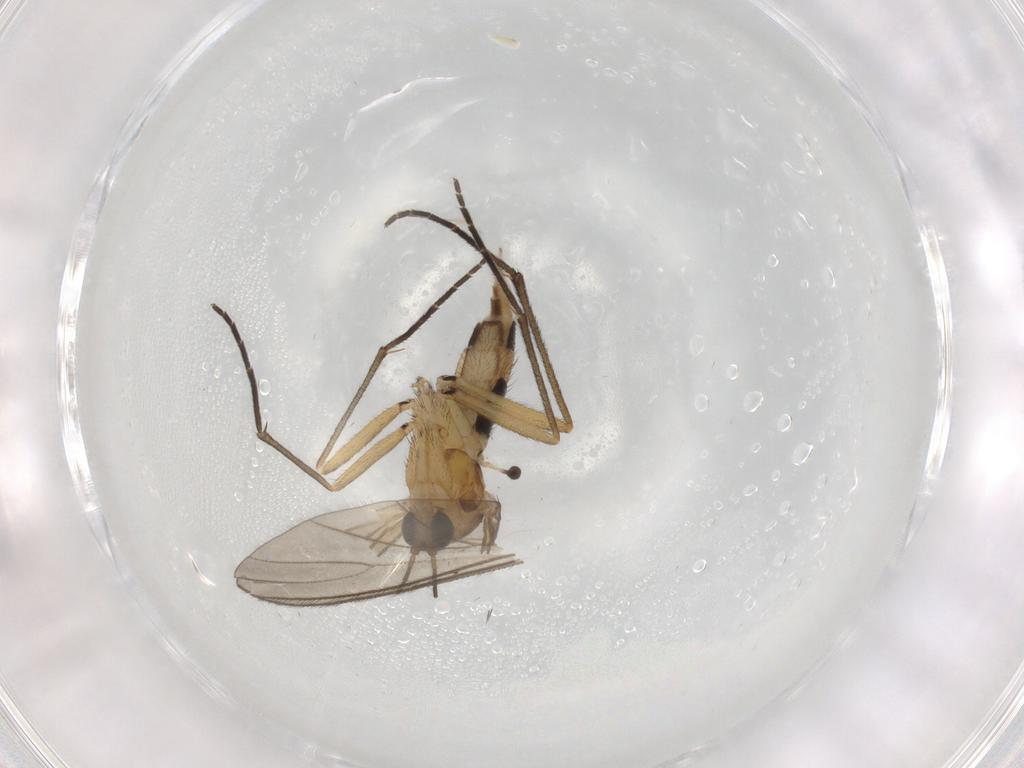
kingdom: Animalia
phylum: Arthropoda
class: Insecta
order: Diptera
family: Sciaridae
